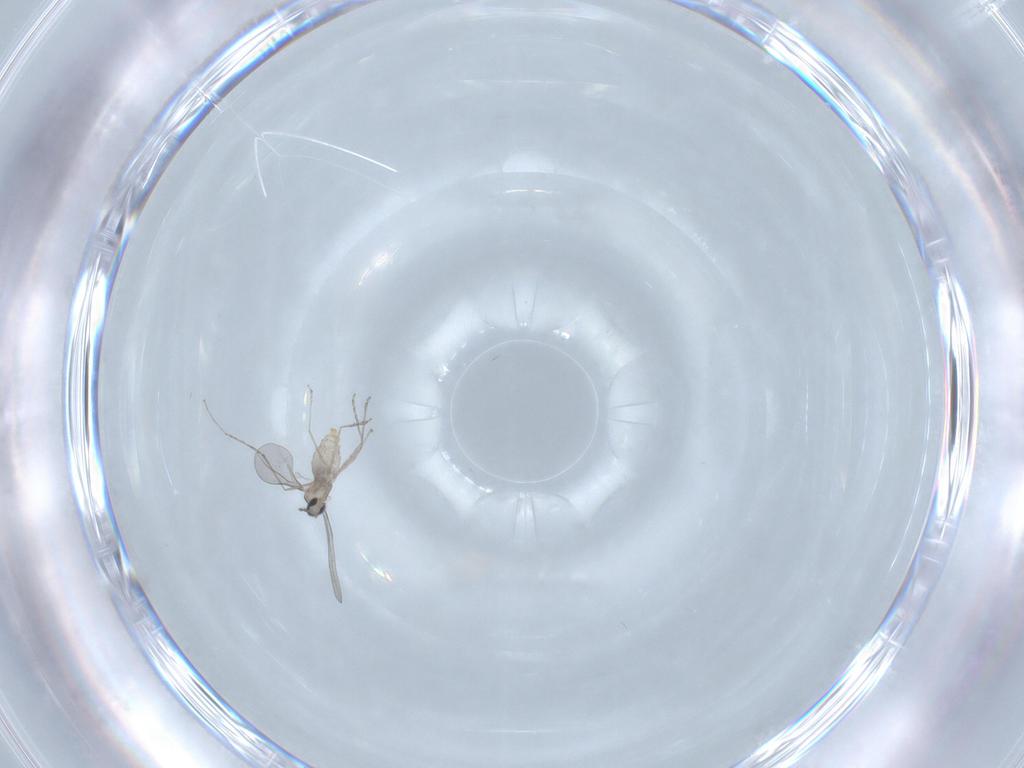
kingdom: Animalia
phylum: Arthropoda
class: Insecta
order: Diptera
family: Cecidomyiidae
